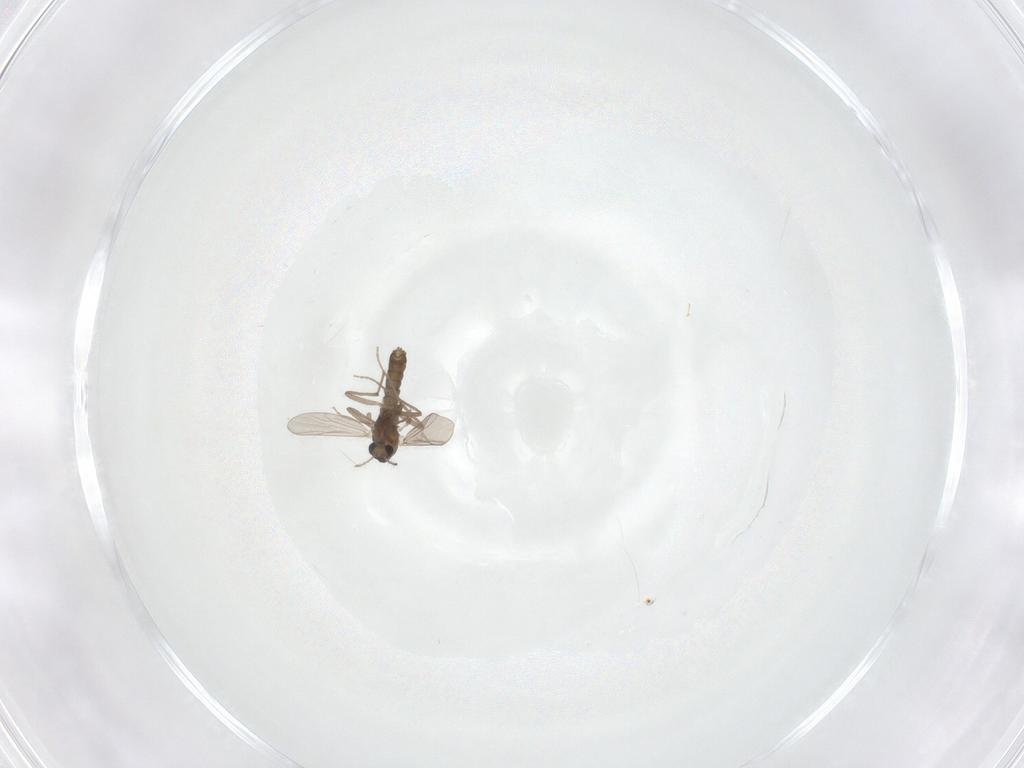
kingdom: Animalia
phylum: Arthropoda
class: Insecta
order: Diptera
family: Chironomidae
